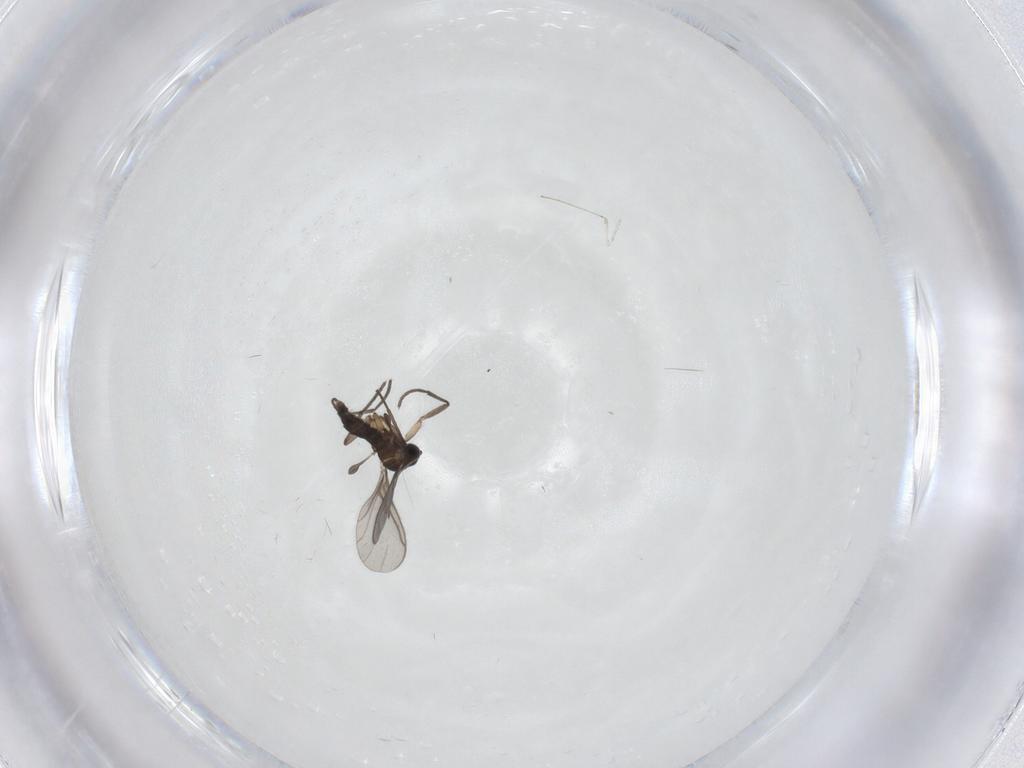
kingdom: Animalia
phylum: Arthropoda
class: Insecta
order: Diptera
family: Cecidomyiidae
